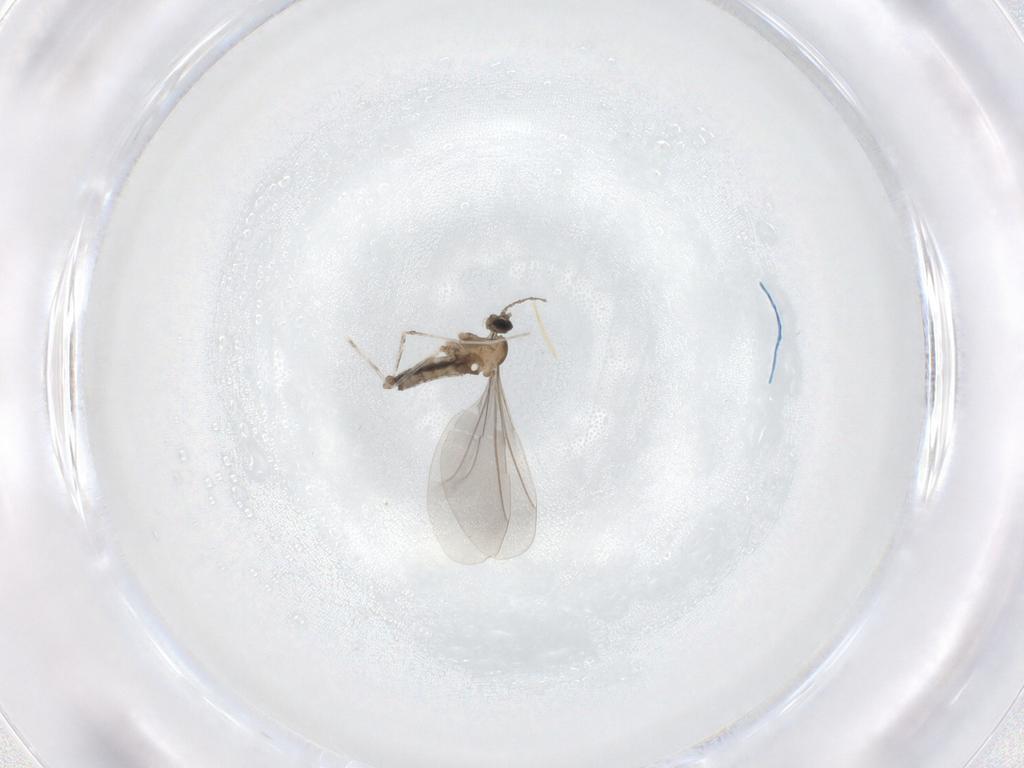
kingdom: Animalia
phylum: Arthropoda
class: Insecta
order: Diptera
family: Cecidomyiidae
